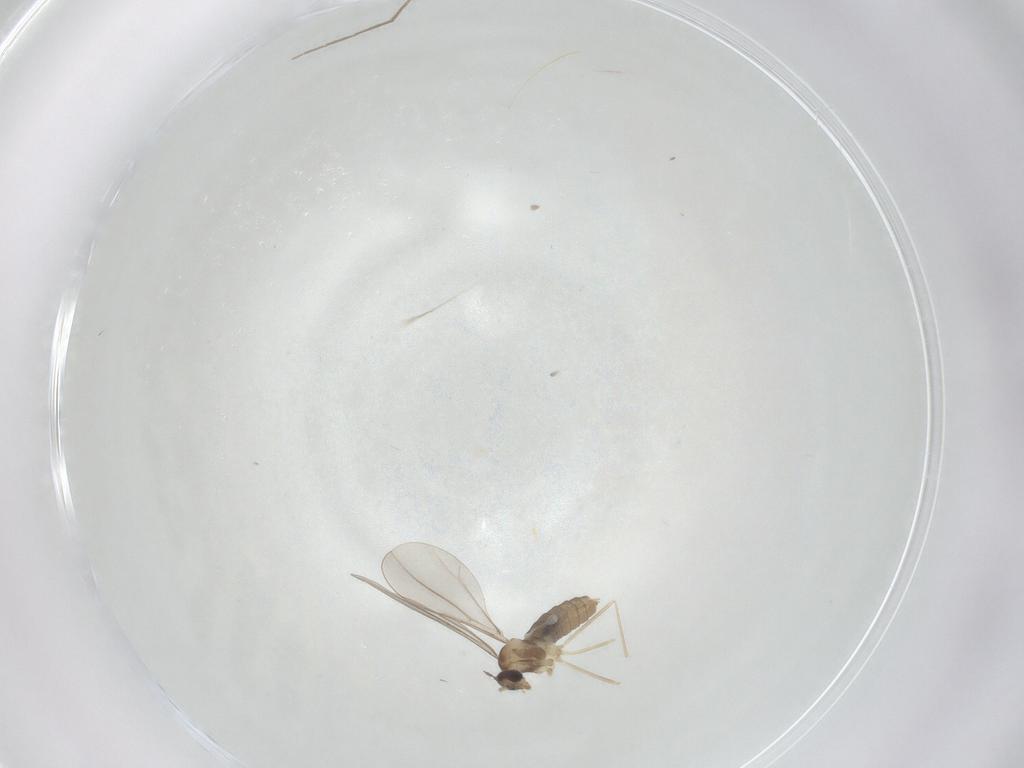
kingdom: Animalia
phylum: Arthropoda
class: Insecta
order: Diptera
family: Cecidomyiidae
